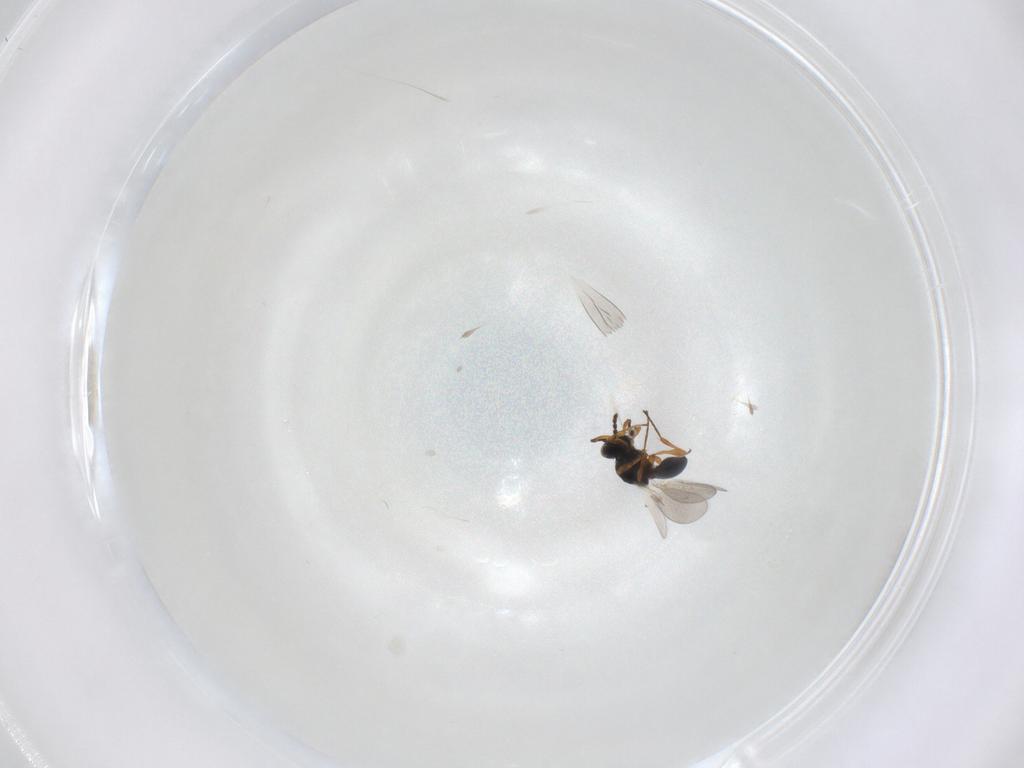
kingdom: Animalia
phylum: Arthropoda
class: Insecta
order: Hymenoptera
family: Platygastridae
